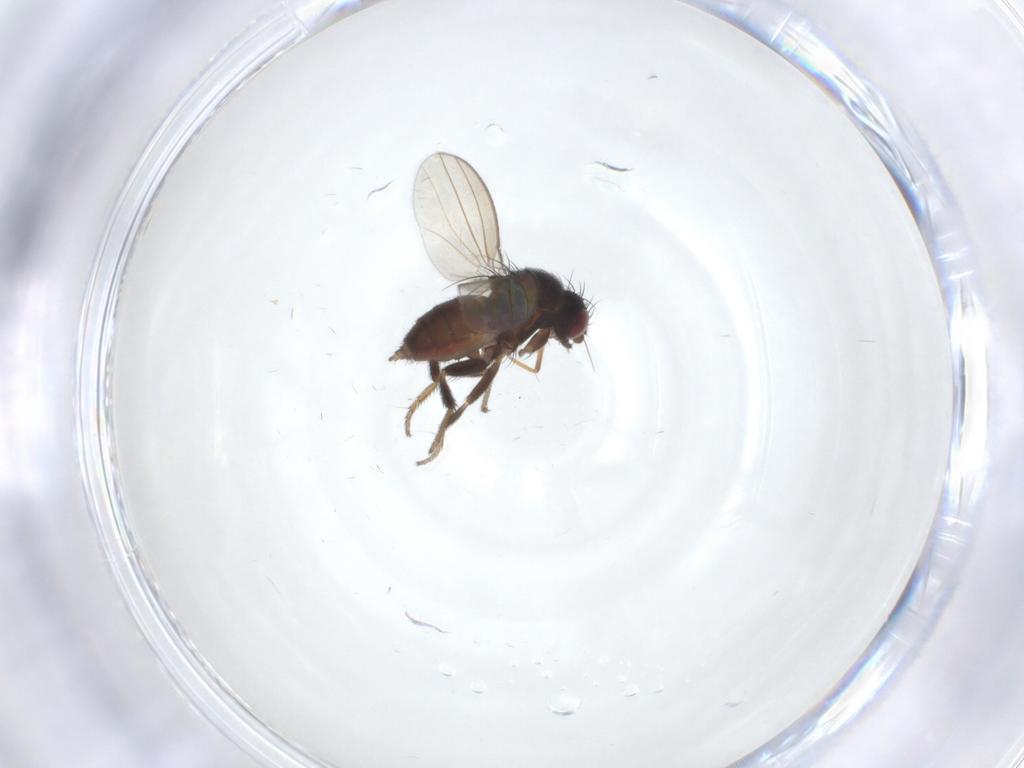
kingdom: Animalia
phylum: Arthropoda
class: Insecta
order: Diptera
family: Milichiidae
